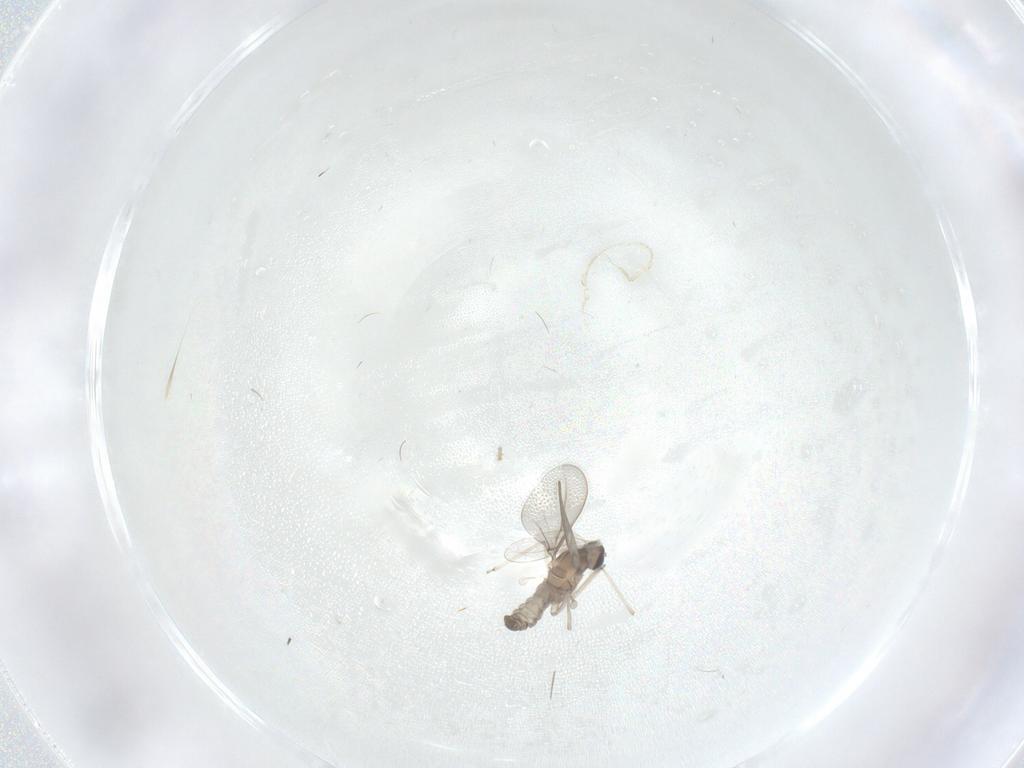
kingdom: Animalia
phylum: Arthropoda
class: Insecta
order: Diptera
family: Cecidomyiidae
